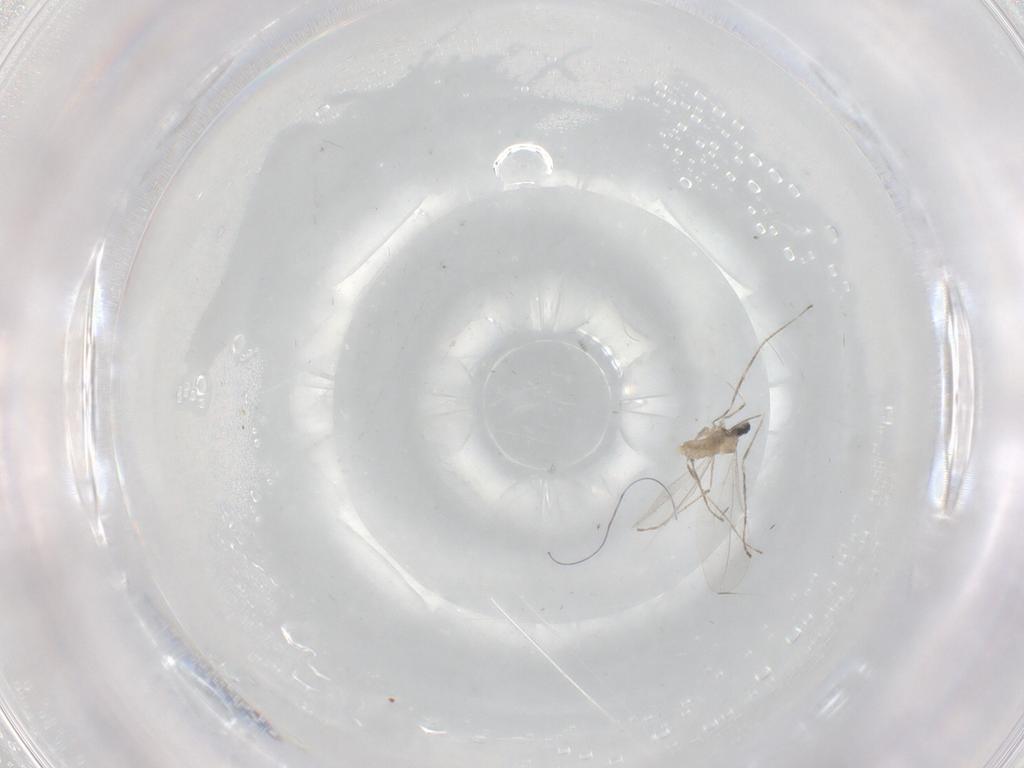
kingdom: Animalia
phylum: Arthropoda
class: Insecta
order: Diptera
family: Cecidomyiidae
